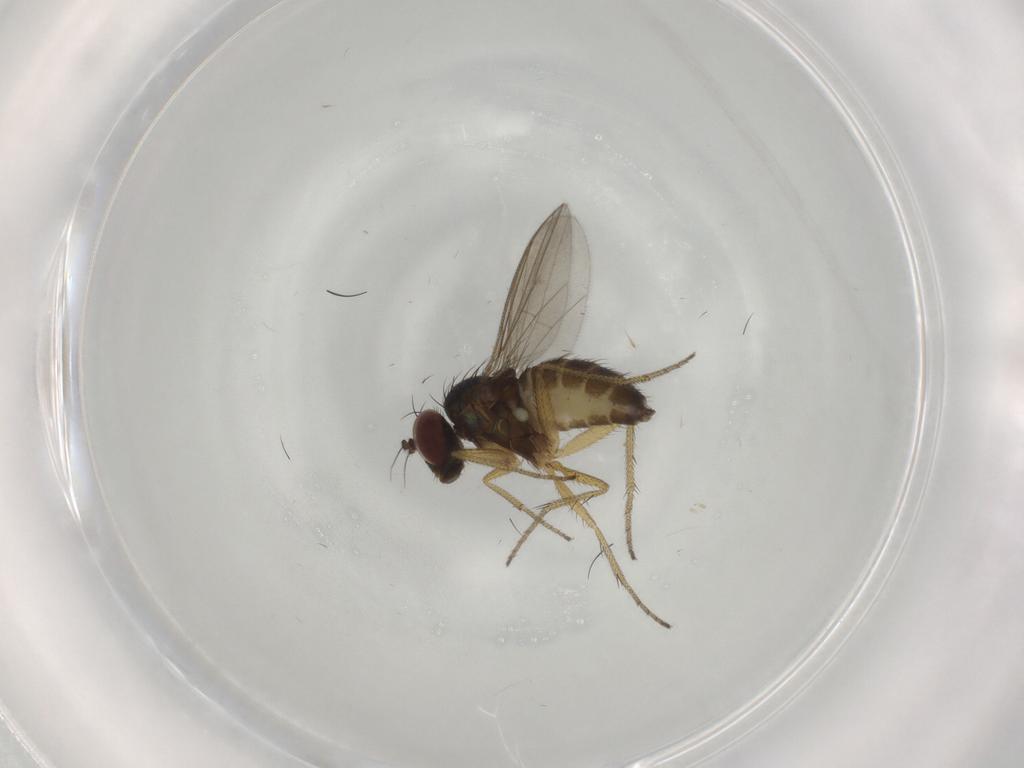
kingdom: Animalia
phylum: Arthropoda
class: Insecta
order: Diptera
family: Dolichopodidae
